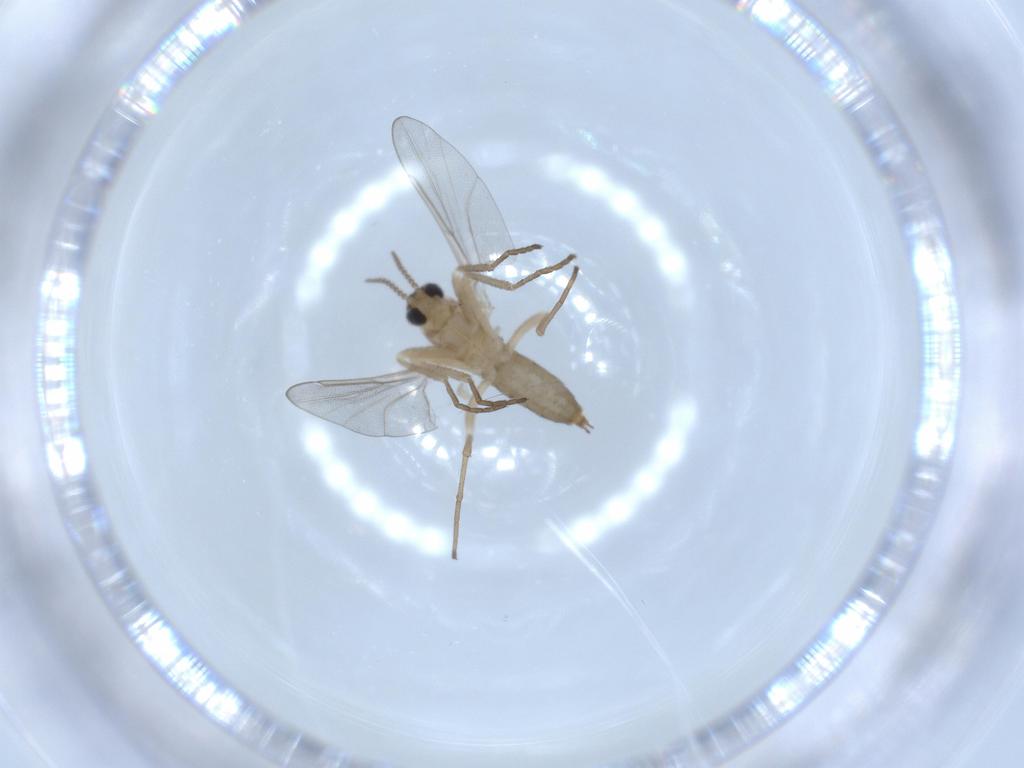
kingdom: Animalia
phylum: Arthropoda
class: Insecta
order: Diptera
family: Cecidomyiidae
